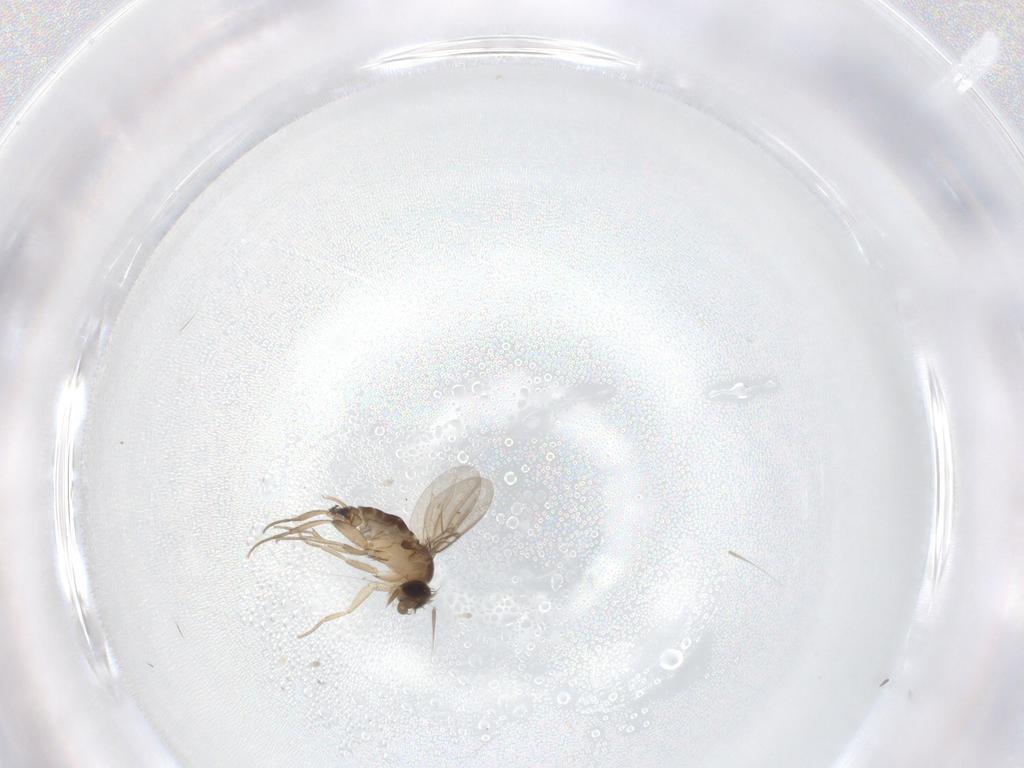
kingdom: Animalia
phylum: Arthropoda
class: Insecta
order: Diptera
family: Phoridae
